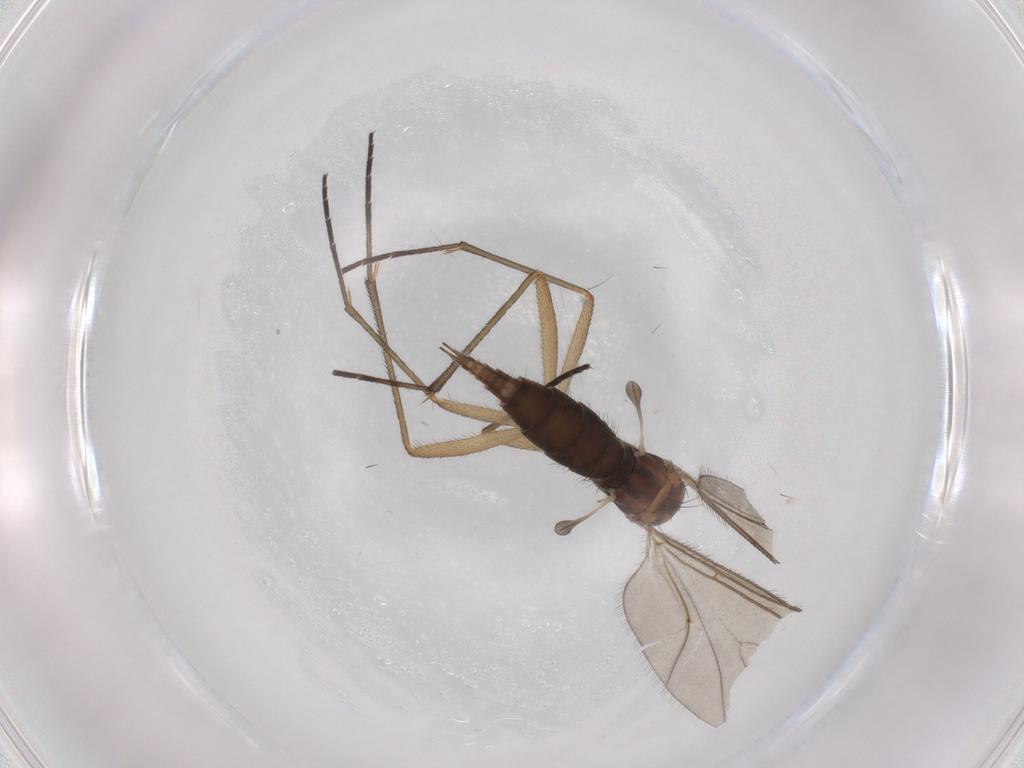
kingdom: Animalia
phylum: Arthropoda
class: Insecta
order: Diptera
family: Sciaridae
